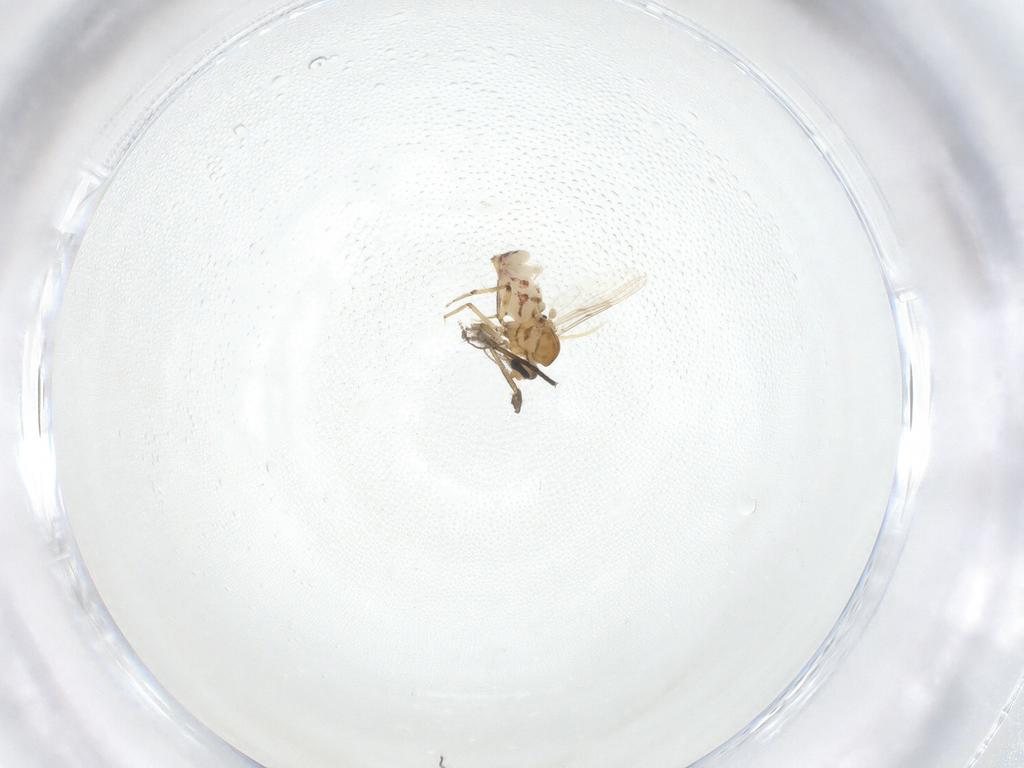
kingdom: Animalia
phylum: Arthropoda
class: Insecta
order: Diptera
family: Ceratopogonidae
